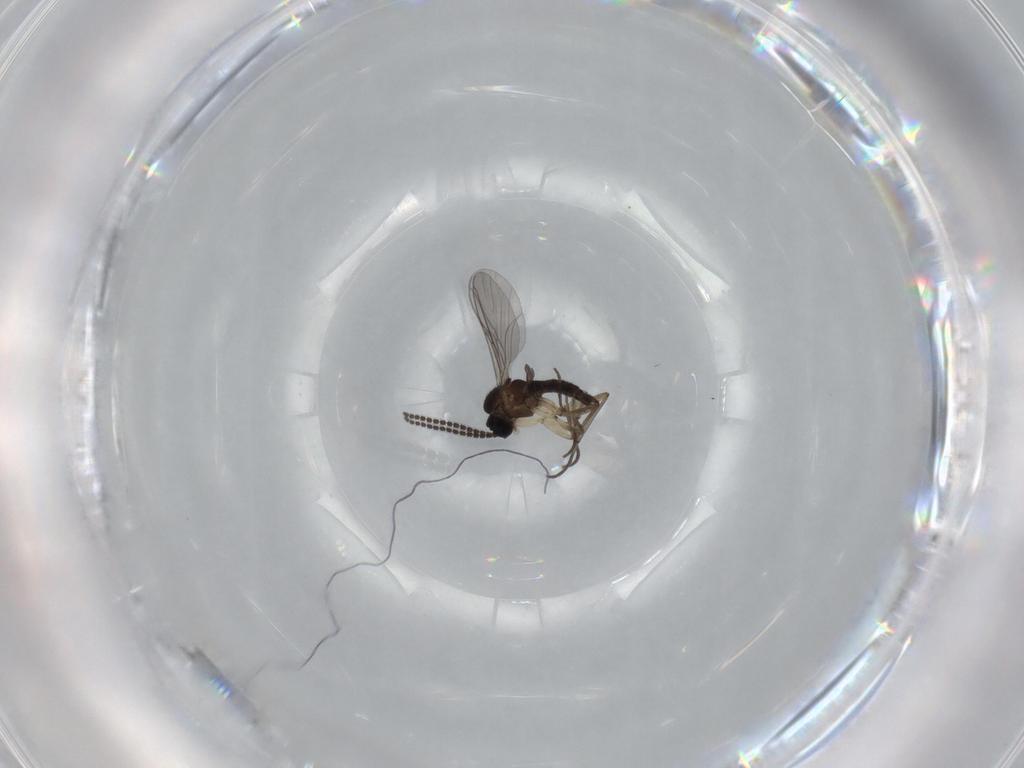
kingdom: Animalia
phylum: Arthropoda
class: Insecta
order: Diptera
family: Sciaridae
